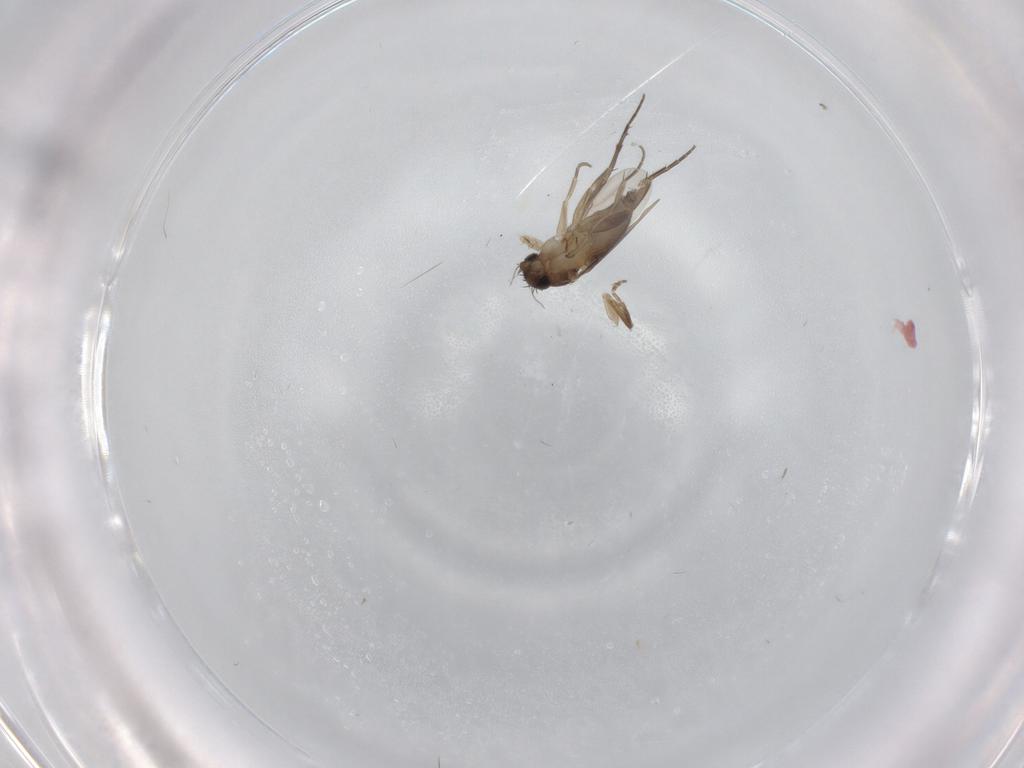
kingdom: Animalia
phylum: Arthropoda
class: Insecta
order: Diptera
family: Phoridae
